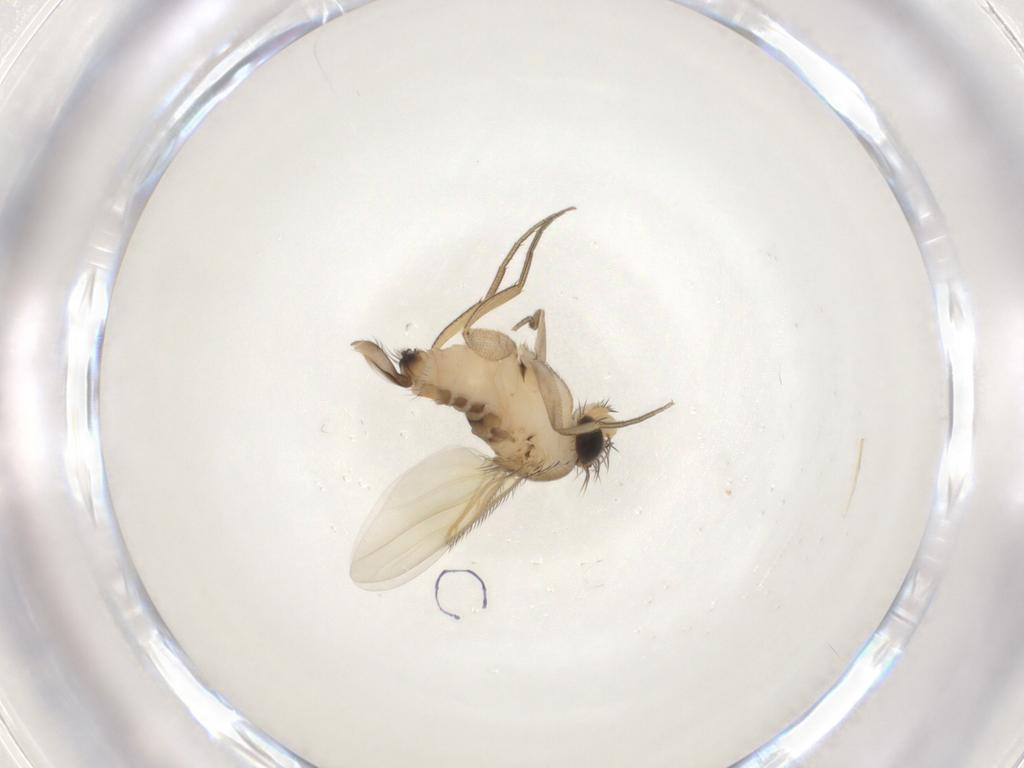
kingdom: Animalia
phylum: Arthropoda
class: Insecta
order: Diptera
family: Phoridae
